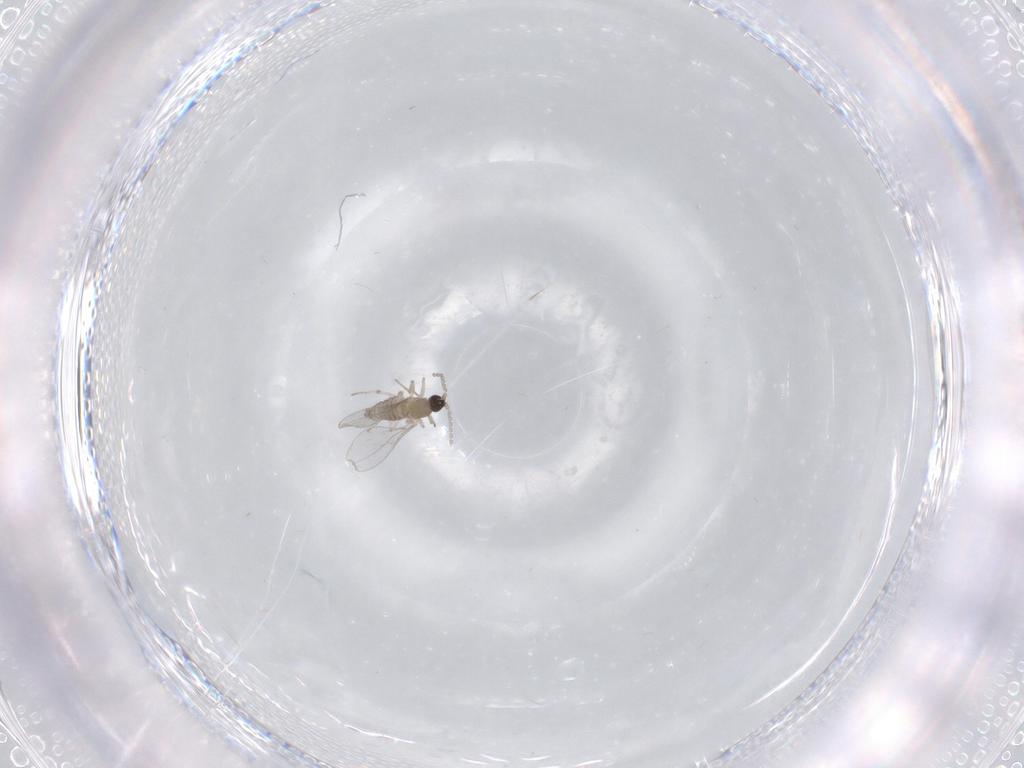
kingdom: Animalia
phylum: Arthropoda
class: Insecta
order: Diptera
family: Cecidomyiidae
